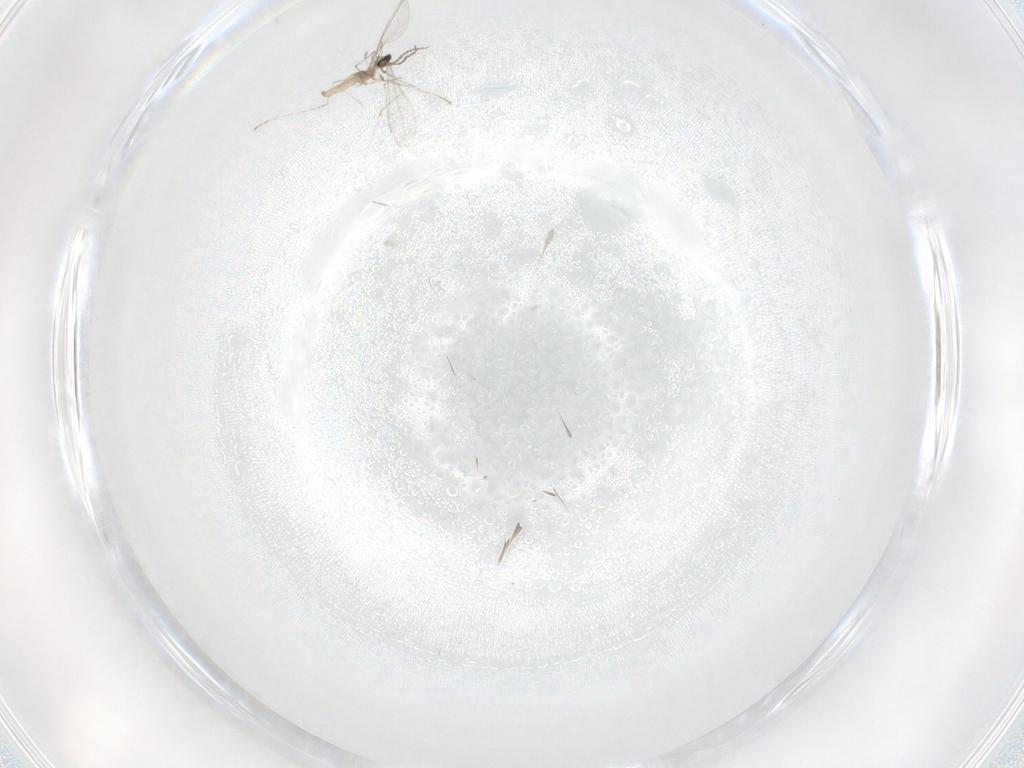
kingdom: Animalia
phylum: Arthropoda
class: Insecta
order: Diptera
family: Cecidomyiidae
